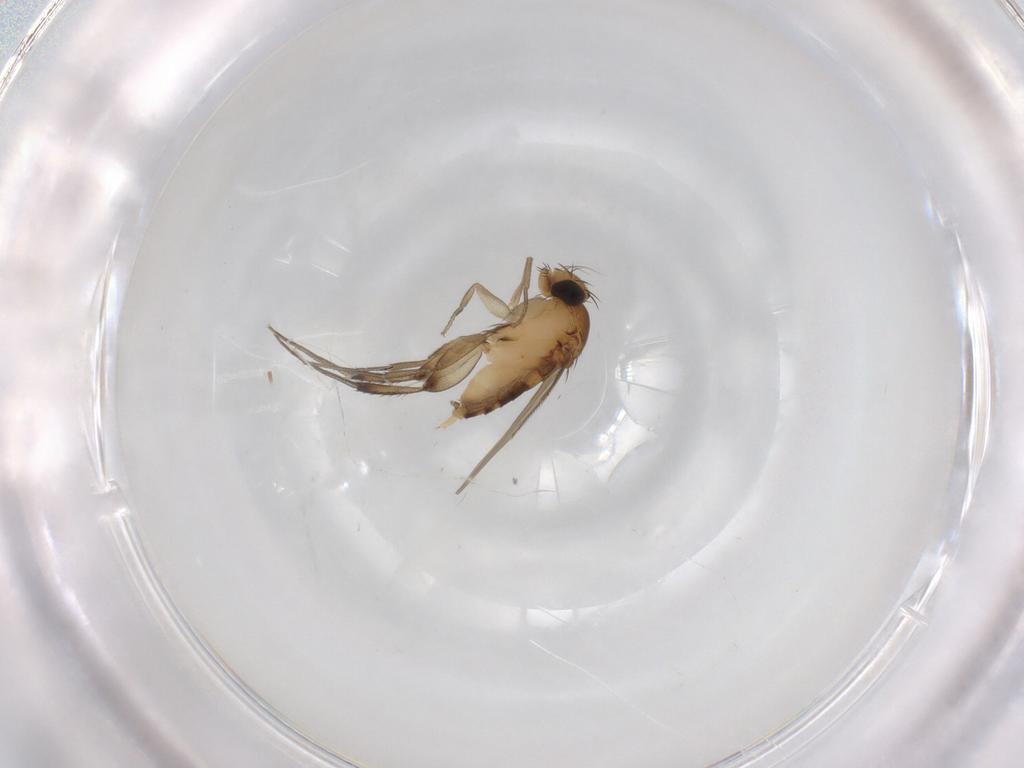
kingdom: Animalia
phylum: Arthropoda
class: Insecta
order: Diptera
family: Phoridae
